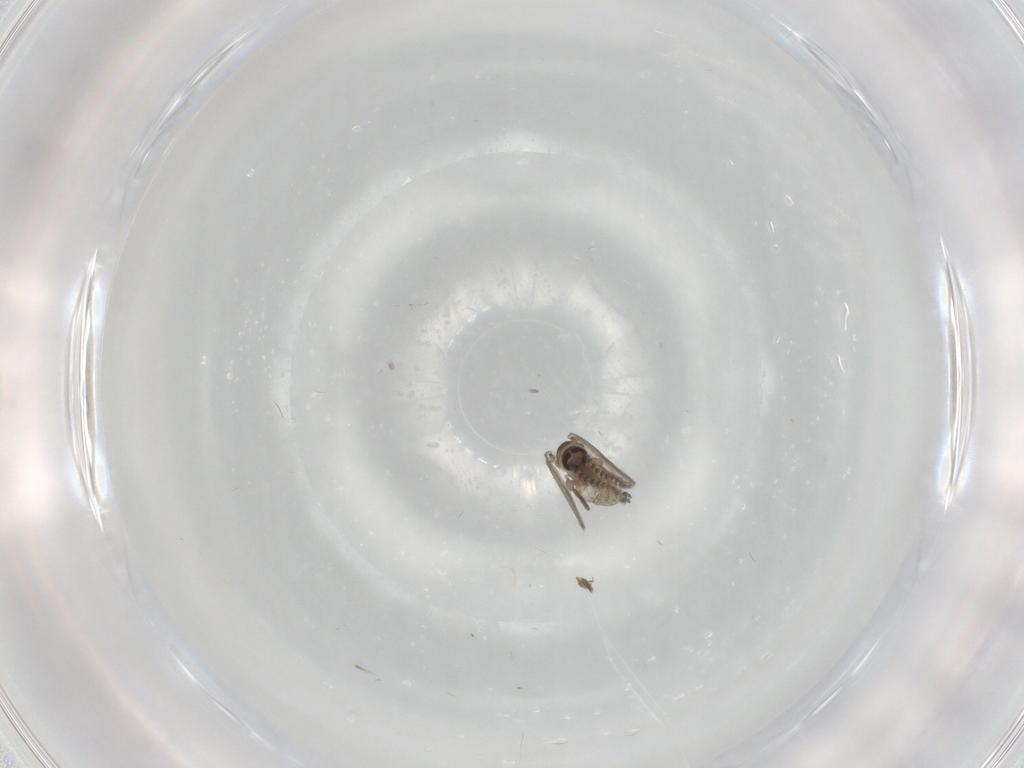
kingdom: Animalia
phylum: Arthropoda
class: Insecta
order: Diptera
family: Psychodidae
